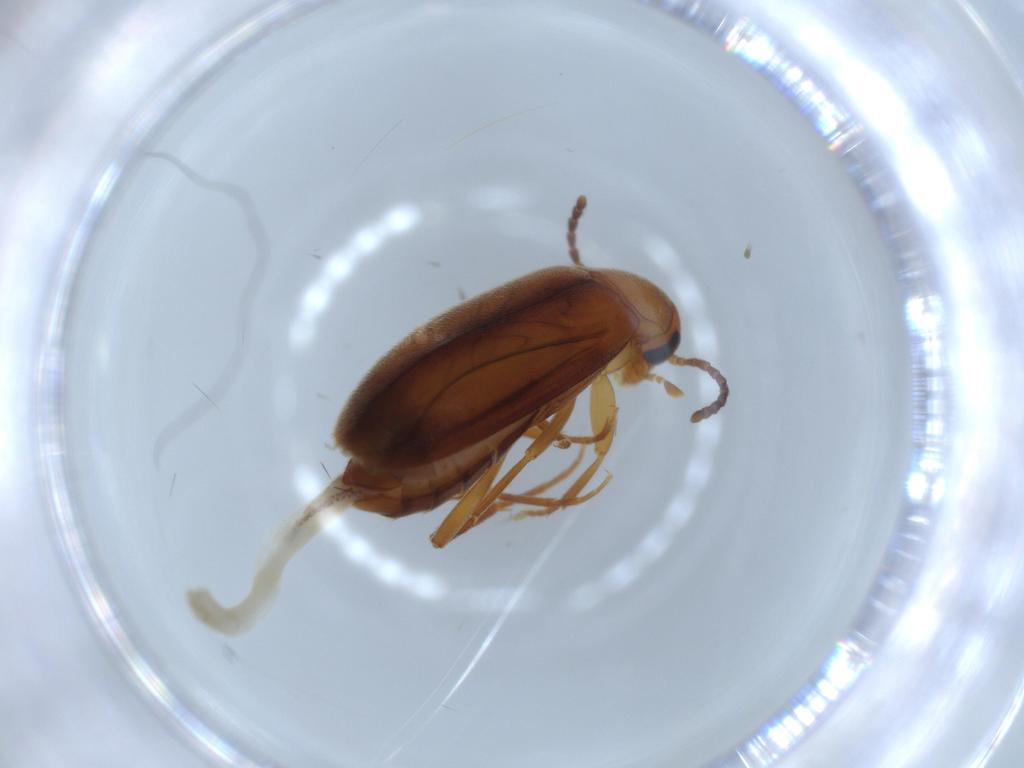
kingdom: Animalia
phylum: Arthropoda
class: Insecta
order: Coleoptera
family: Scraptiidae
